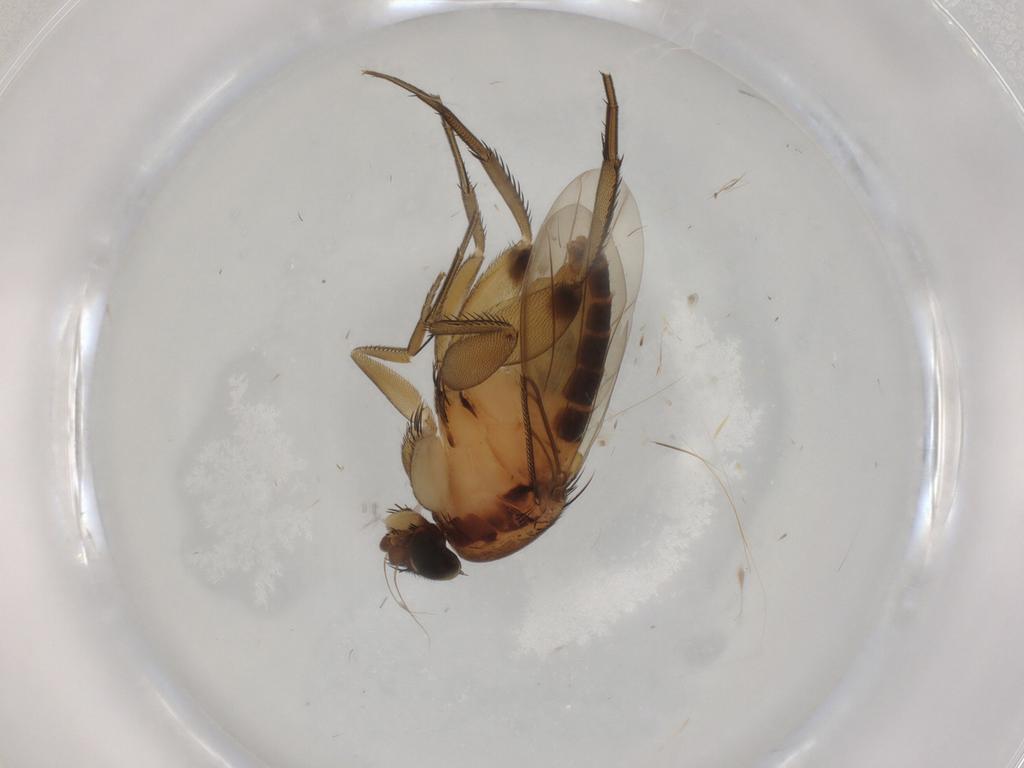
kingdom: Animalia
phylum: Arthropoda
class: Insecta
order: Diptera
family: Phoridae
